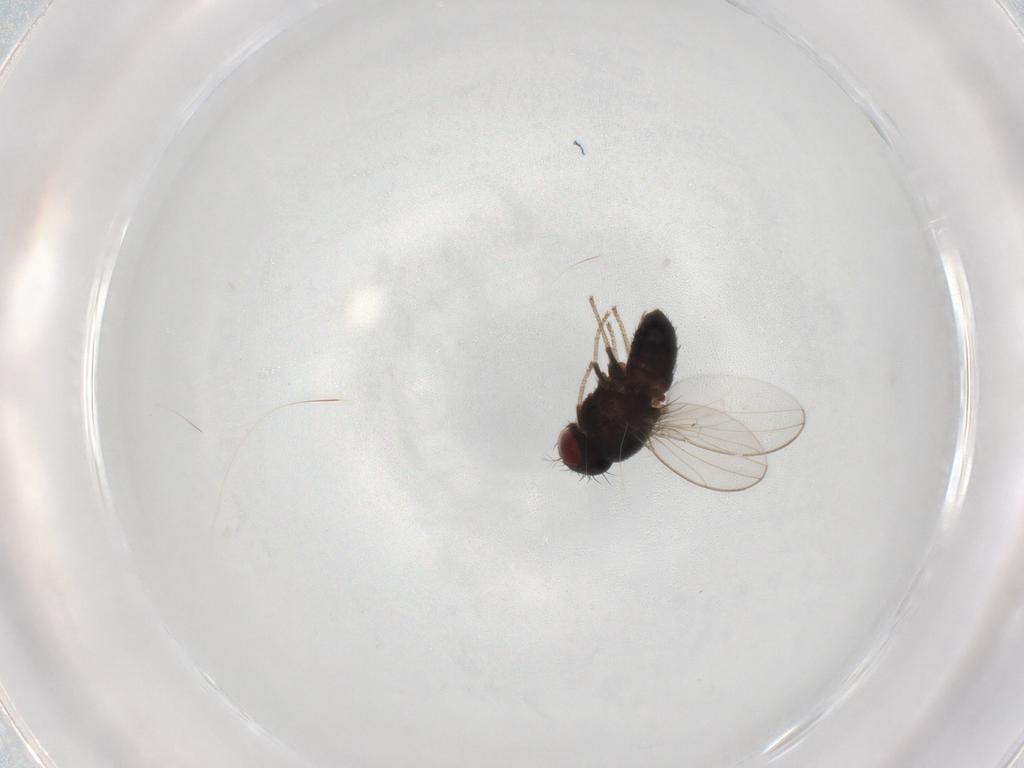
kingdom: Animalia
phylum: Arthropoda
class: Insecta
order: Diptera
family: Drosophilidae
